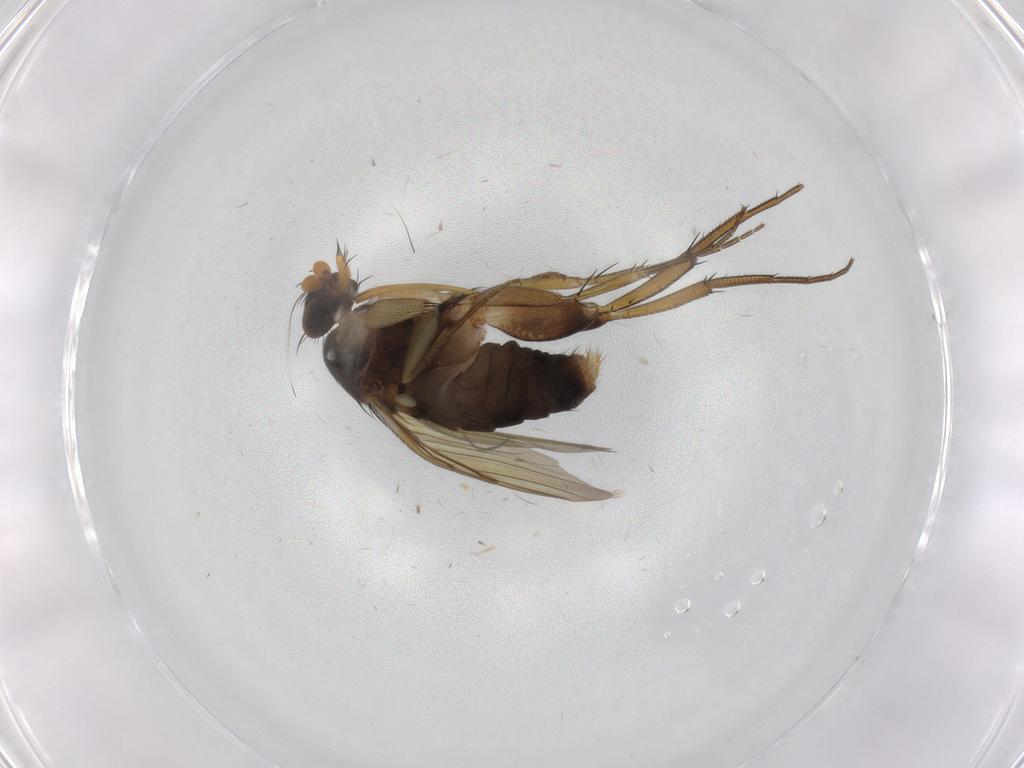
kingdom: Animalia
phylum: Arthropoda
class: Insecta
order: Diptera
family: Phoridae
